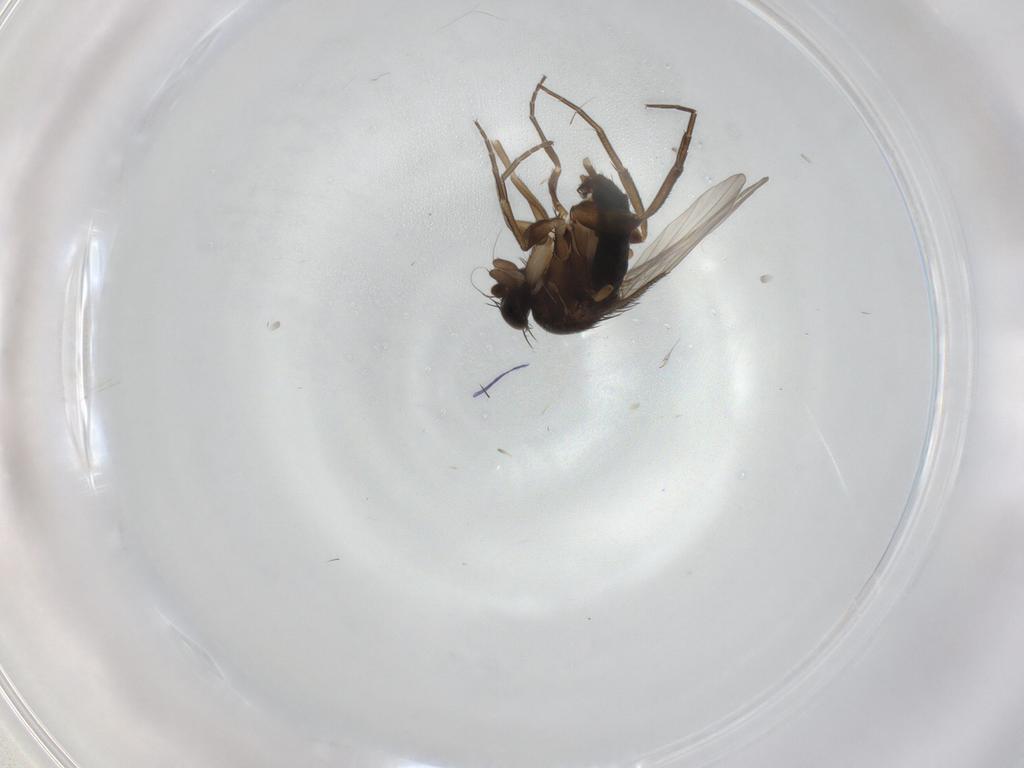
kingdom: Animalia
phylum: Arthropoda
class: Insecta
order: Diptera
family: Phoridae
